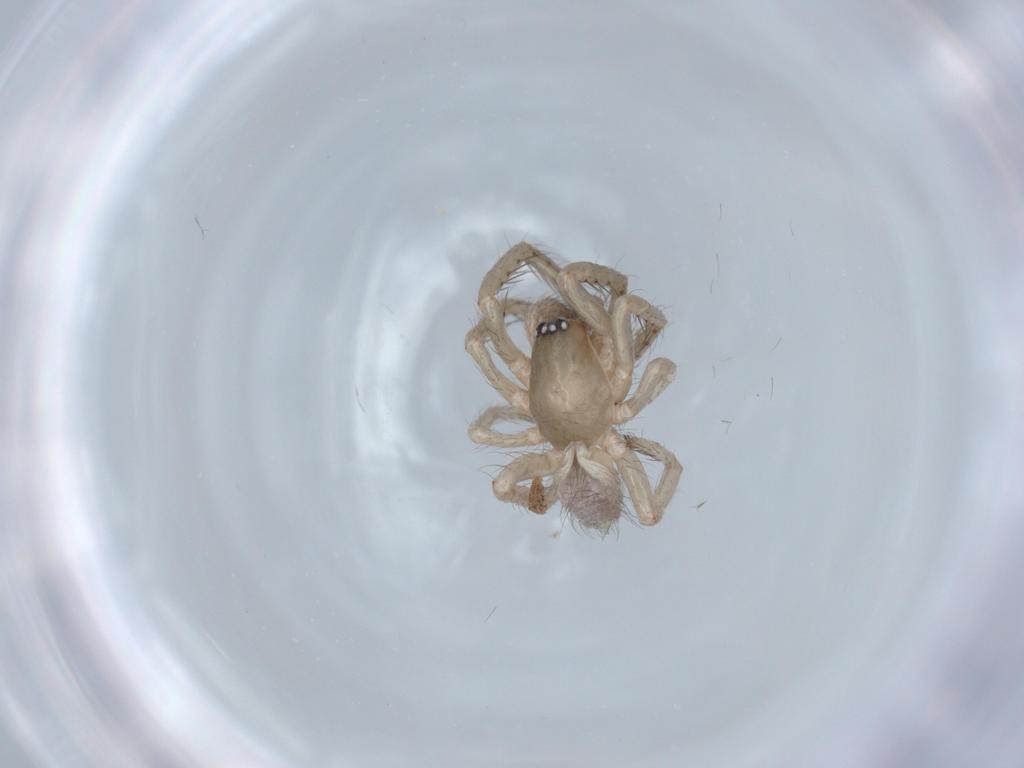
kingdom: Animalia
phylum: Arthropoda
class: Arachnida
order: Araneae
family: Segestriidae
